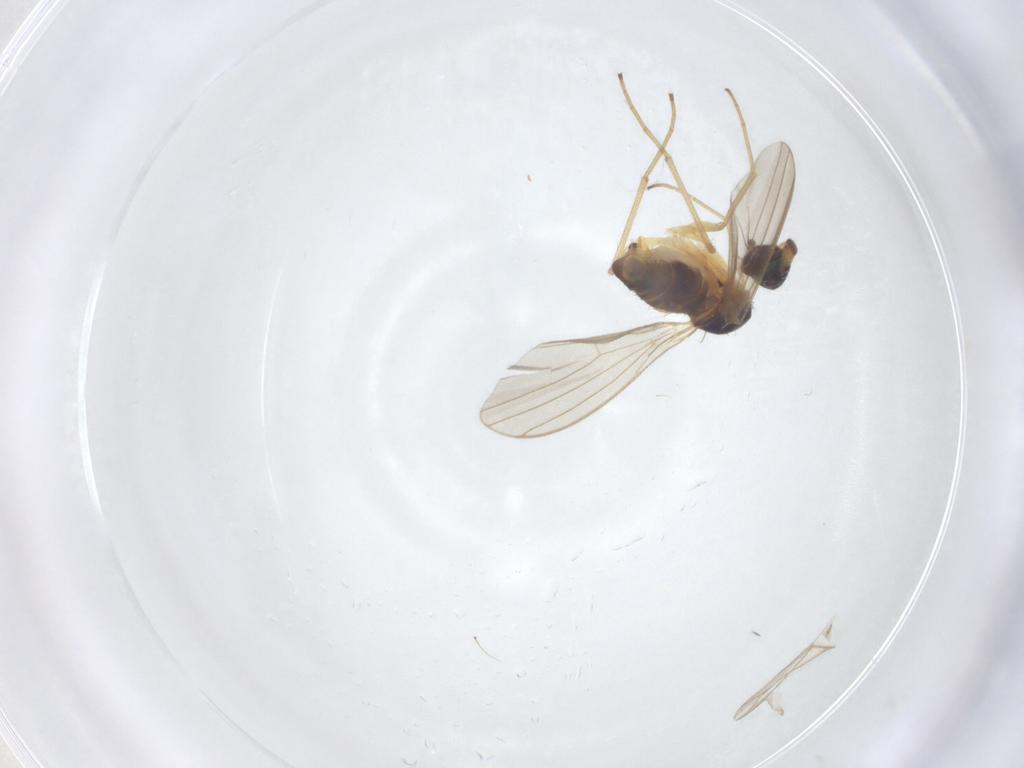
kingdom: Animalia
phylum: Arthropoda
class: Insecta
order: Diptera
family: Dolichopodidae
